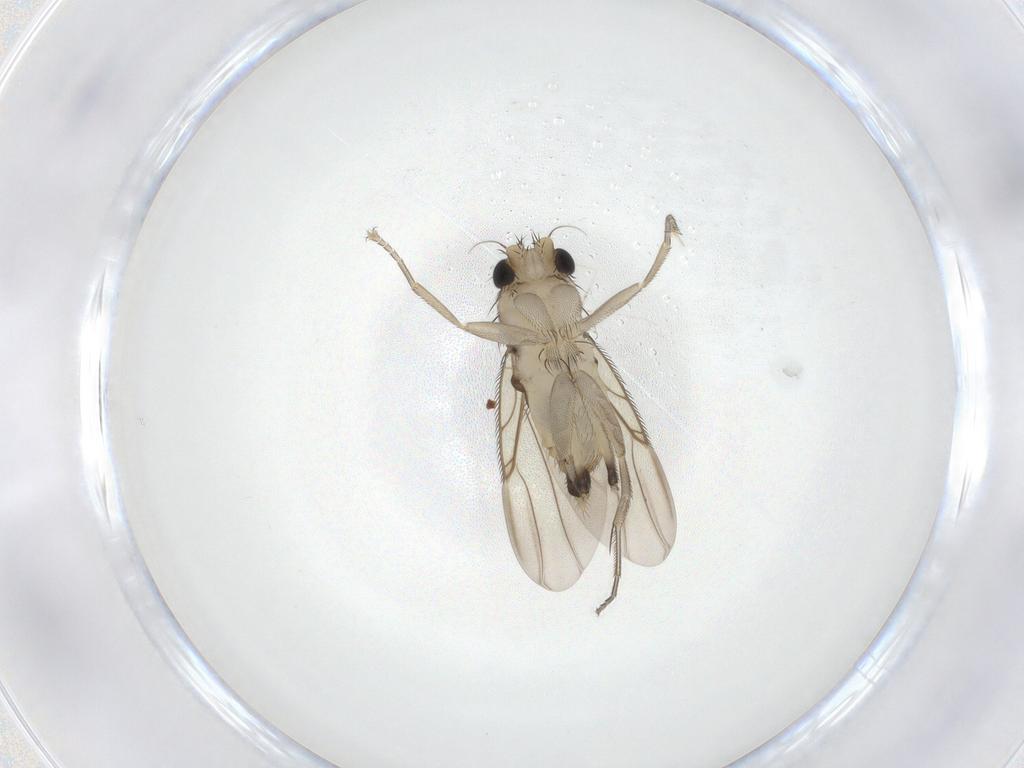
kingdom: Animalia
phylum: Arthropoda
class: Insecta
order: Diptera
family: Phoridae
